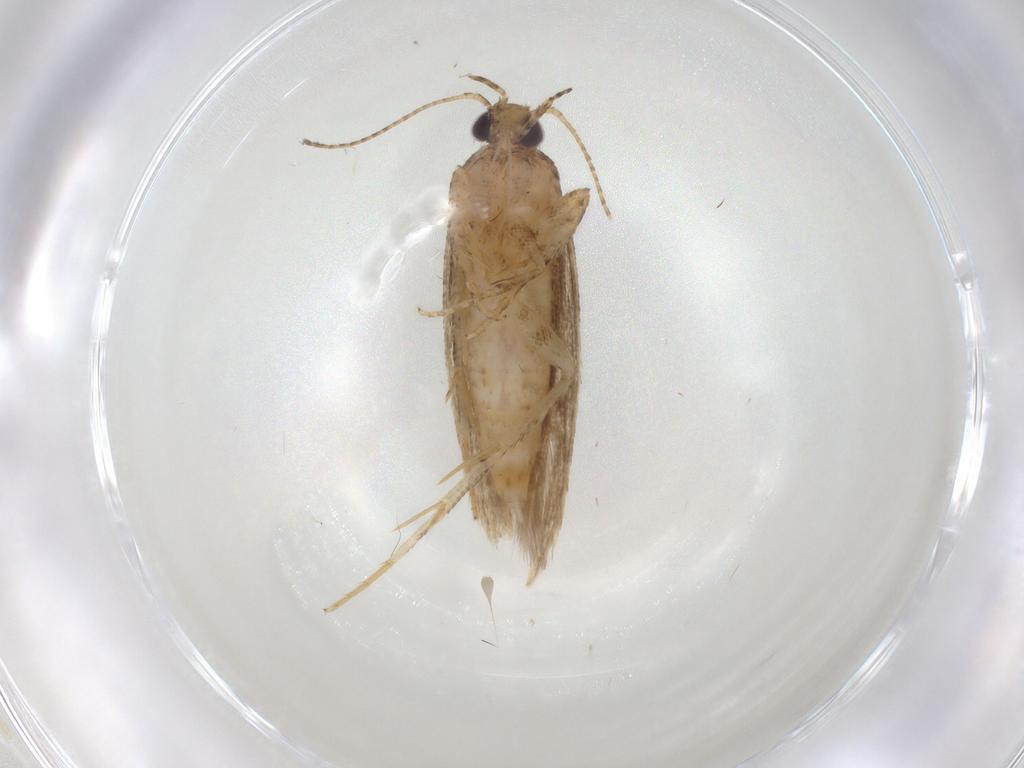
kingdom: Animalia
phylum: Arthropoda
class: Insecta
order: Lepidoptera
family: Gelechiidae
